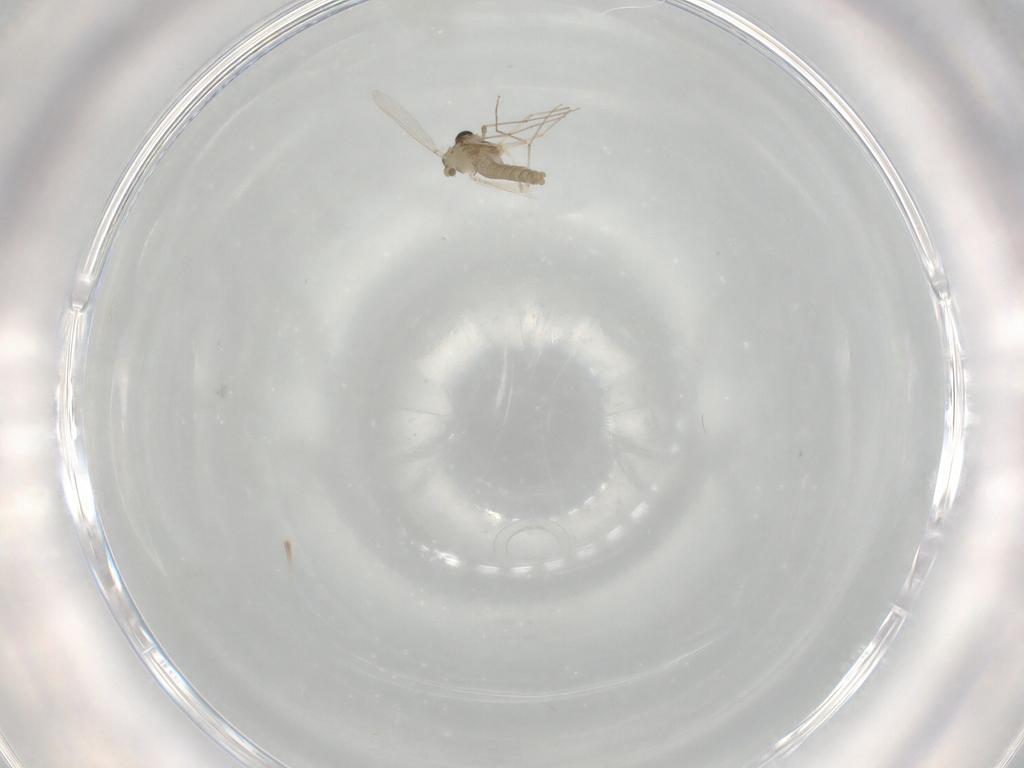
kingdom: Animalia
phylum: Arthropoda
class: Insecta
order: Diptera
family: Chironomidae
